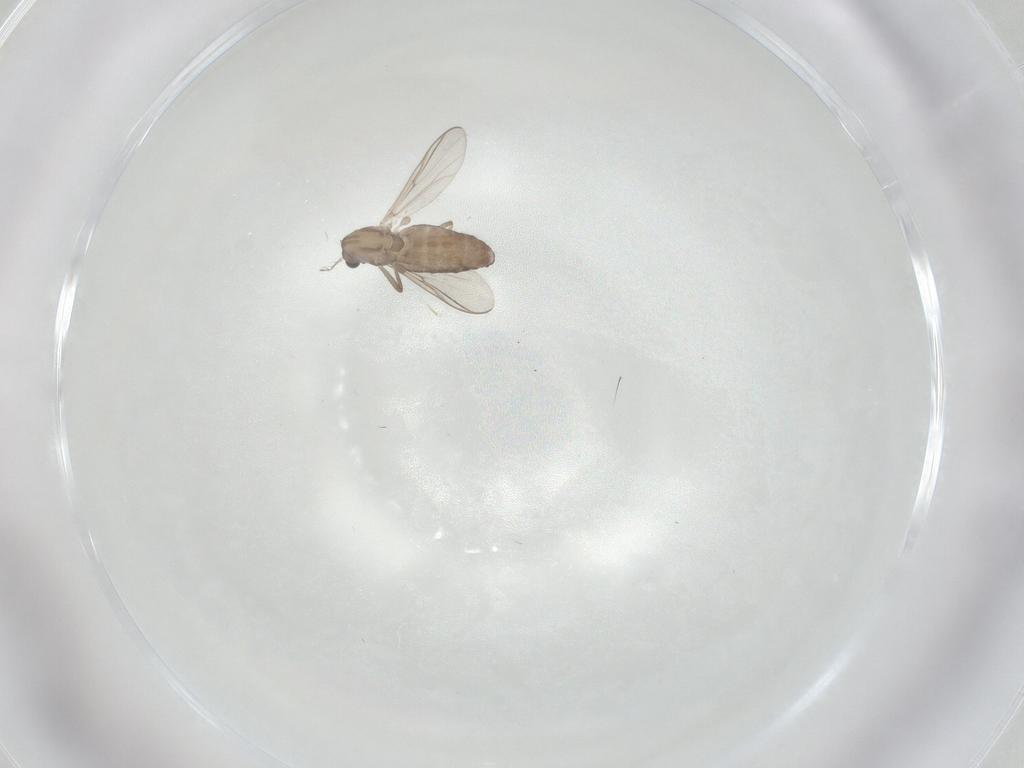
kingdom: Animalia
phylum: Arthropoda
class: Insecta
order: Diptera
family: Chironomidae
